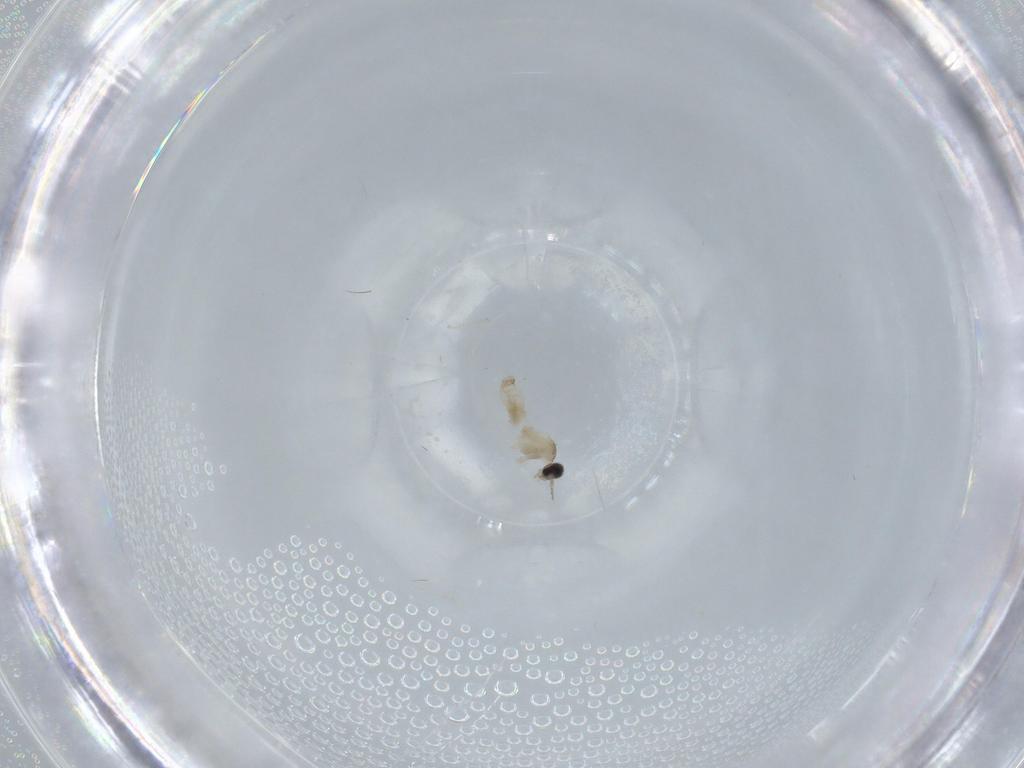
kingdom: Animalia
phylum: Arthropoda
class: Insecta
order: Diptera
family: Cecidomyiidae
